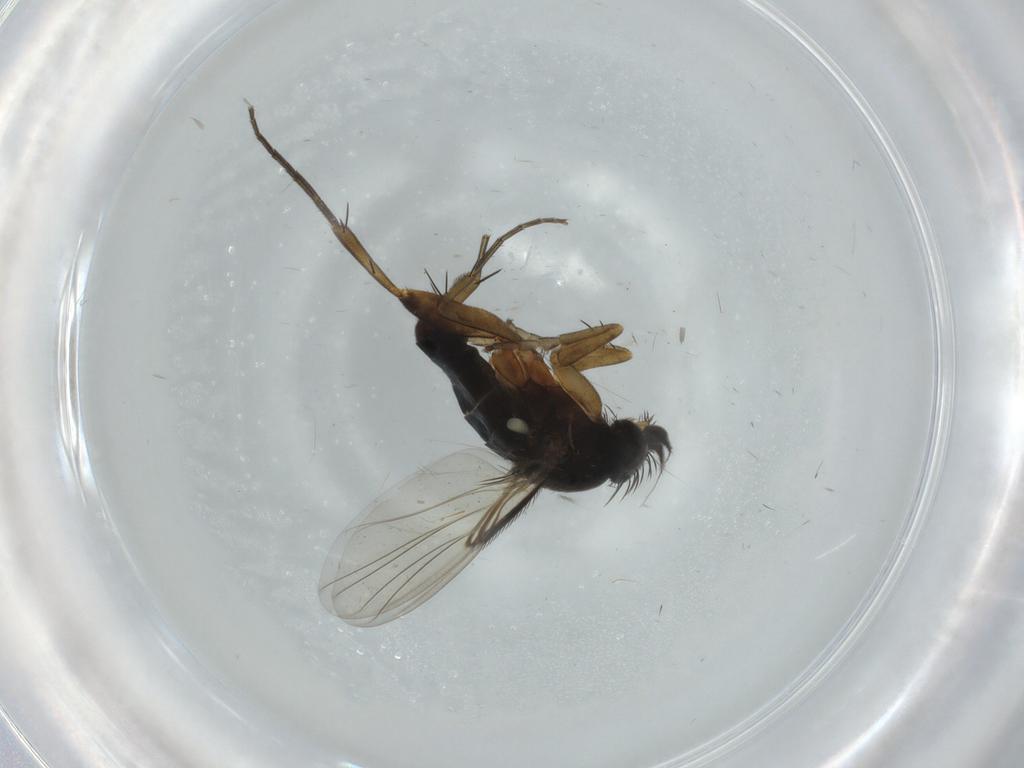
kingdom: Animalia
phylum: Arthropoda
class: Insecta
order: Diptera
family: Phoridae
